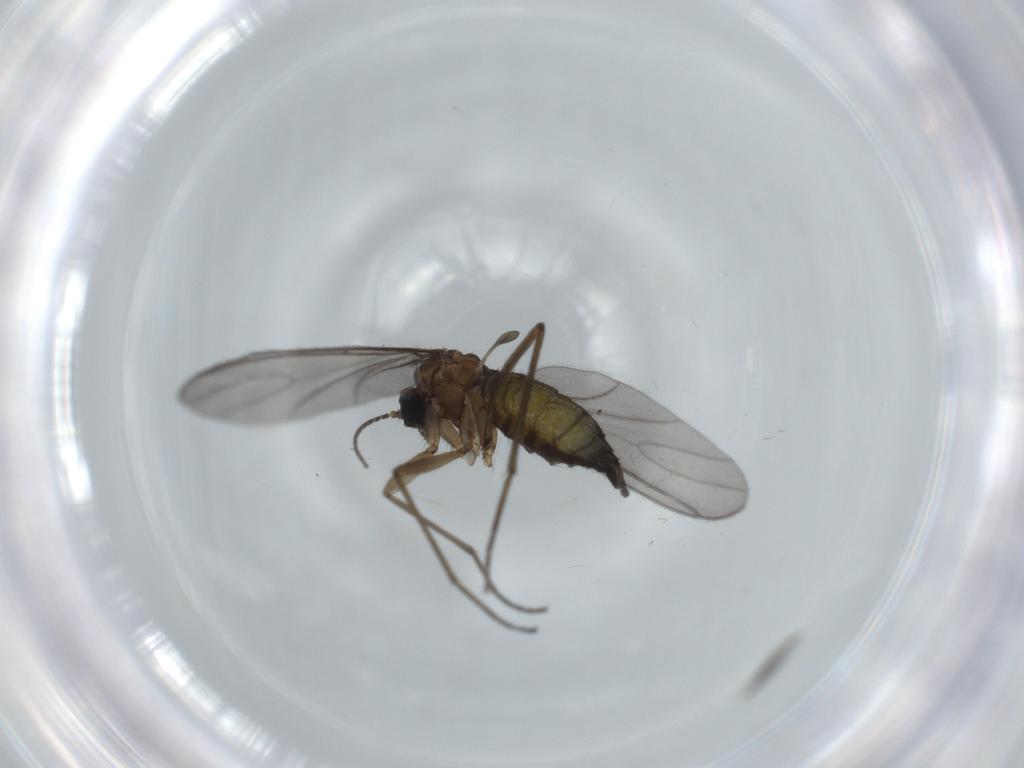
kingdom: Animalia
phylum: Arthropoda
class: Insecta
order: Diptera
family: Sciaridae
